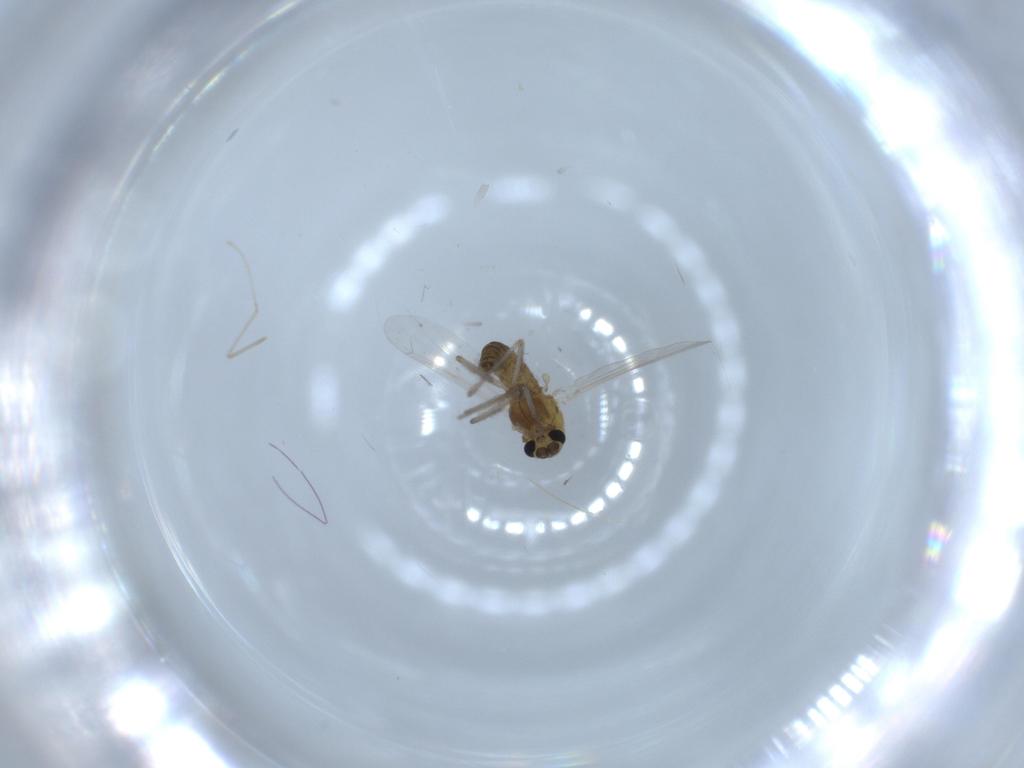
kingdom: Animalia
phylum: Arthropoda
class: Insecta
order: Diptera
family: Chironomidae
